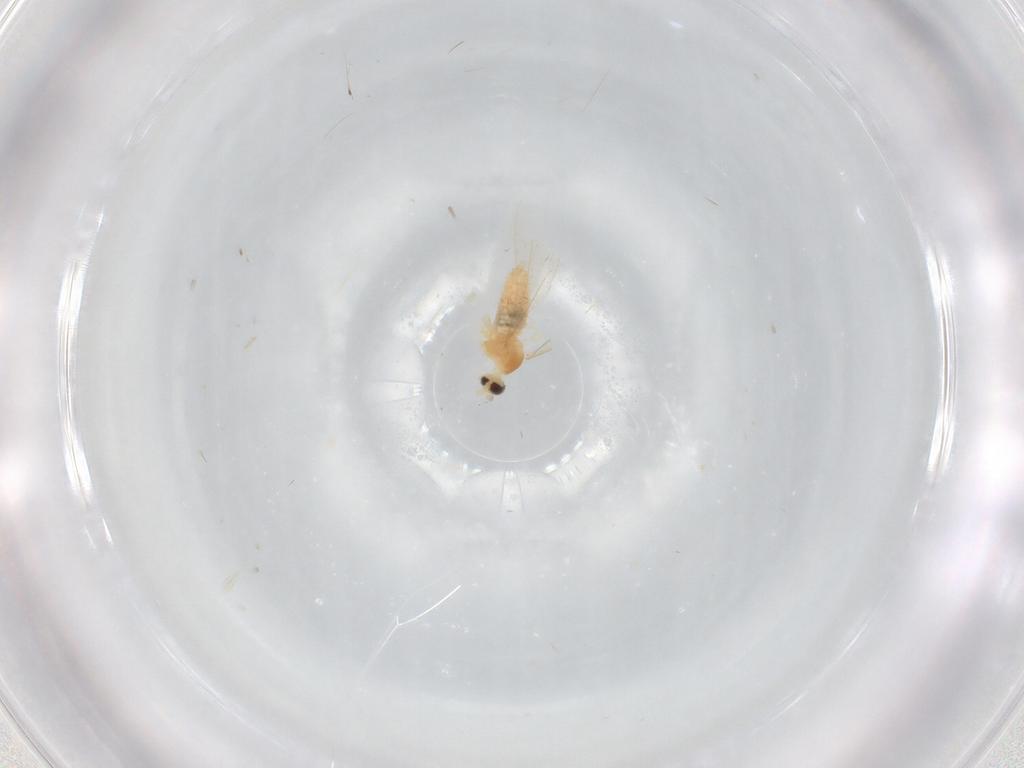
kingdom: Animalia
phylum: Arthropoda
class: Insecta
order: Diptera
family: Cecidomyiidae
